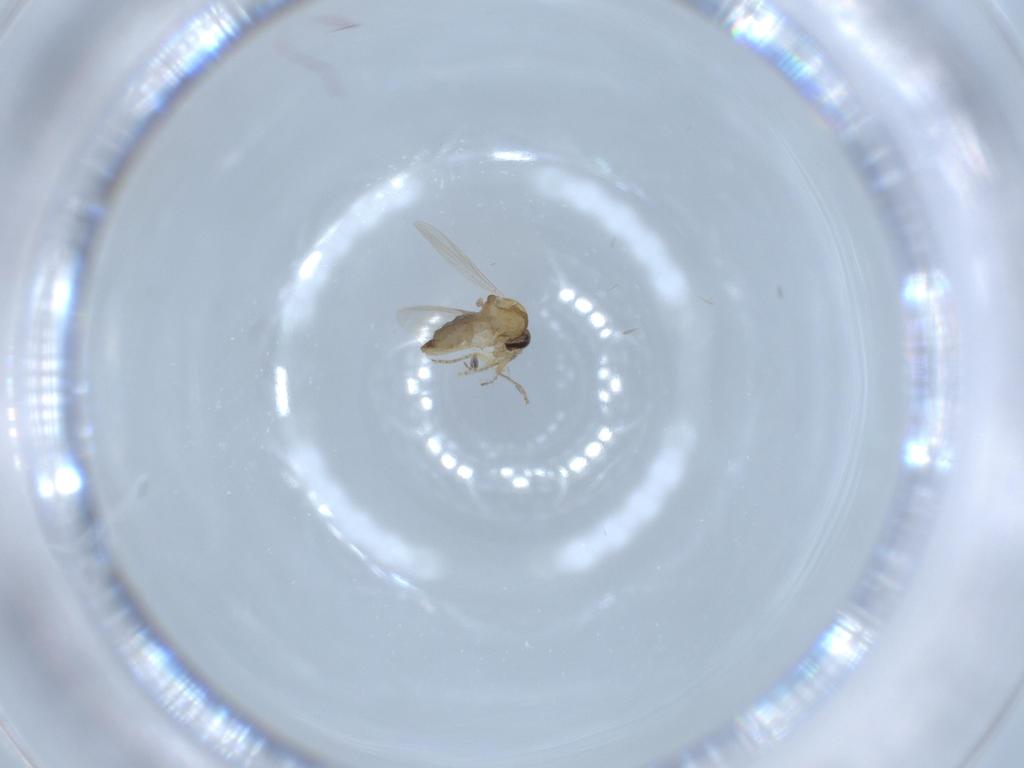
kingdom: Animalia
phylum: Arthropoda
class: Insecta
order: Diptera
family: Ceratopogonidae
